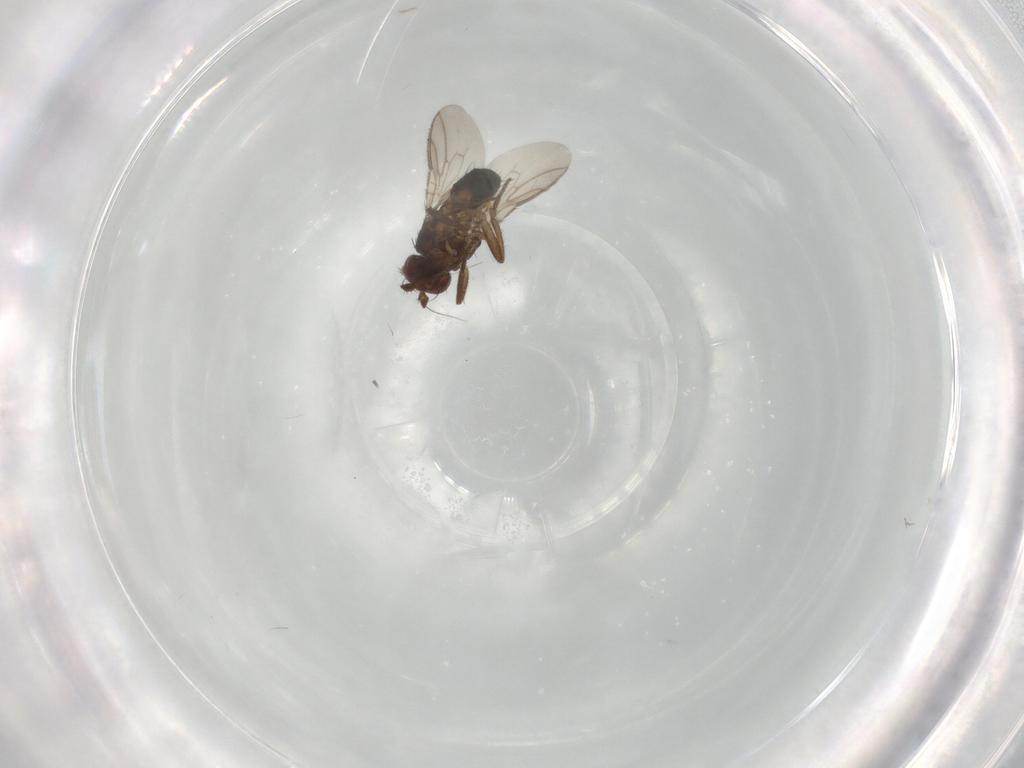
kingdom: Animalia
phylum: Arthropoda
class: Insecta
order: Diptera
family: Sphaeroceridae
